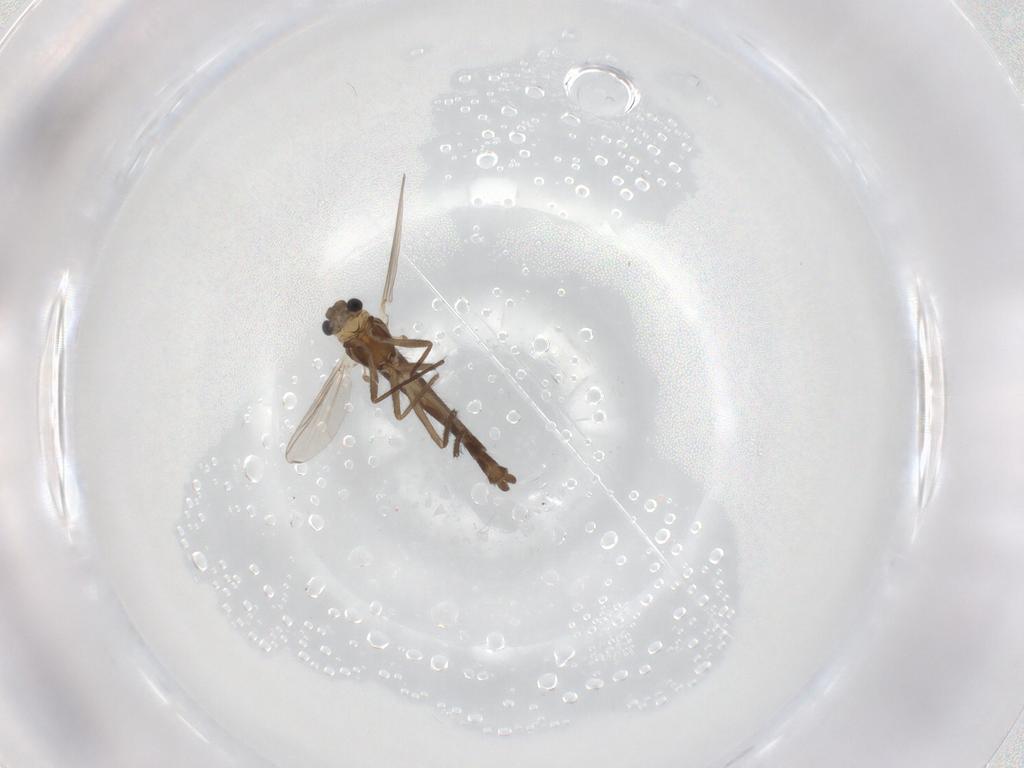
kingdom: Animalia
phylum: Arthropoda
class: Insecta
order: Diptera
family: Chironomidae
